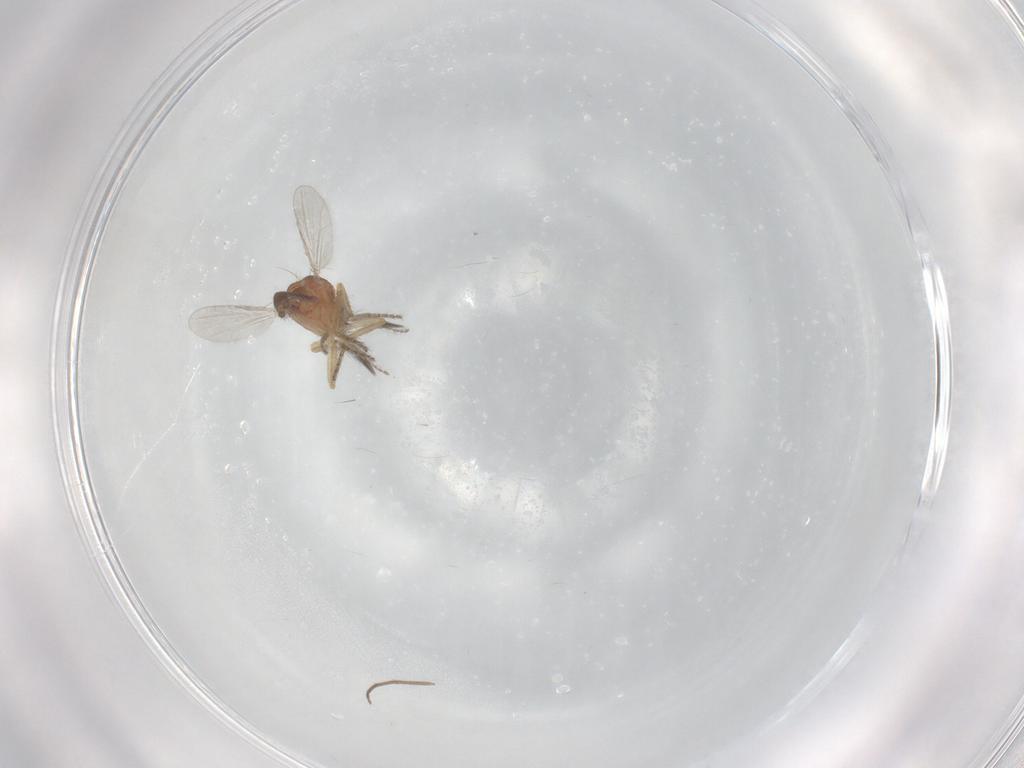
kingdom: Animalia
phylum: Arthropoda
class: Insecta
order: Diptera
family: Ceratopogonidae
